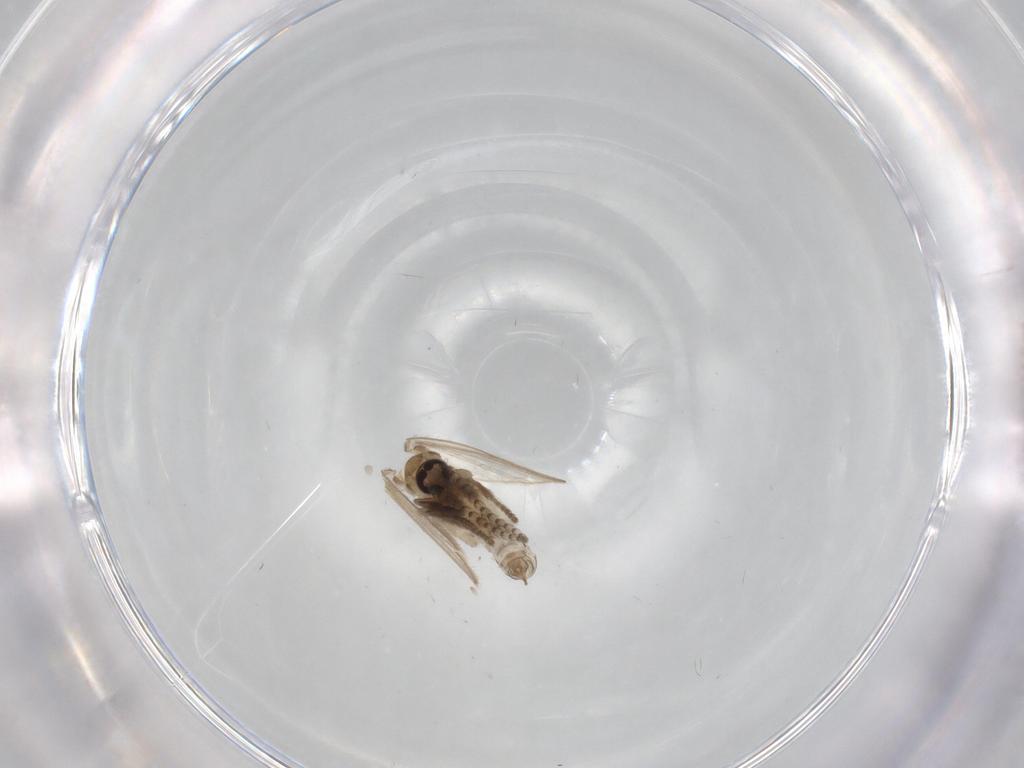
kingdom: Animalia
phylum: Arthropoda
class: Insecta
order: Diptera
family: Psychodidae
